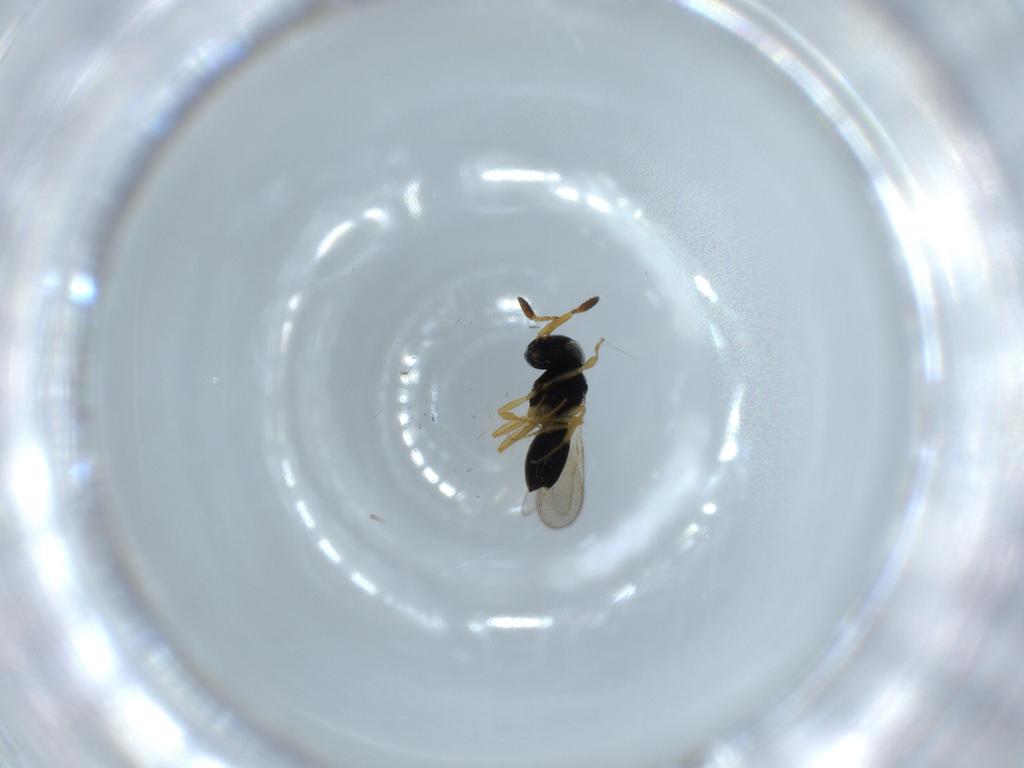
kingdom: Animalia
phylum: Arthropoda
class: Insecta
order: Hymenoptera
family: Scelionidae
